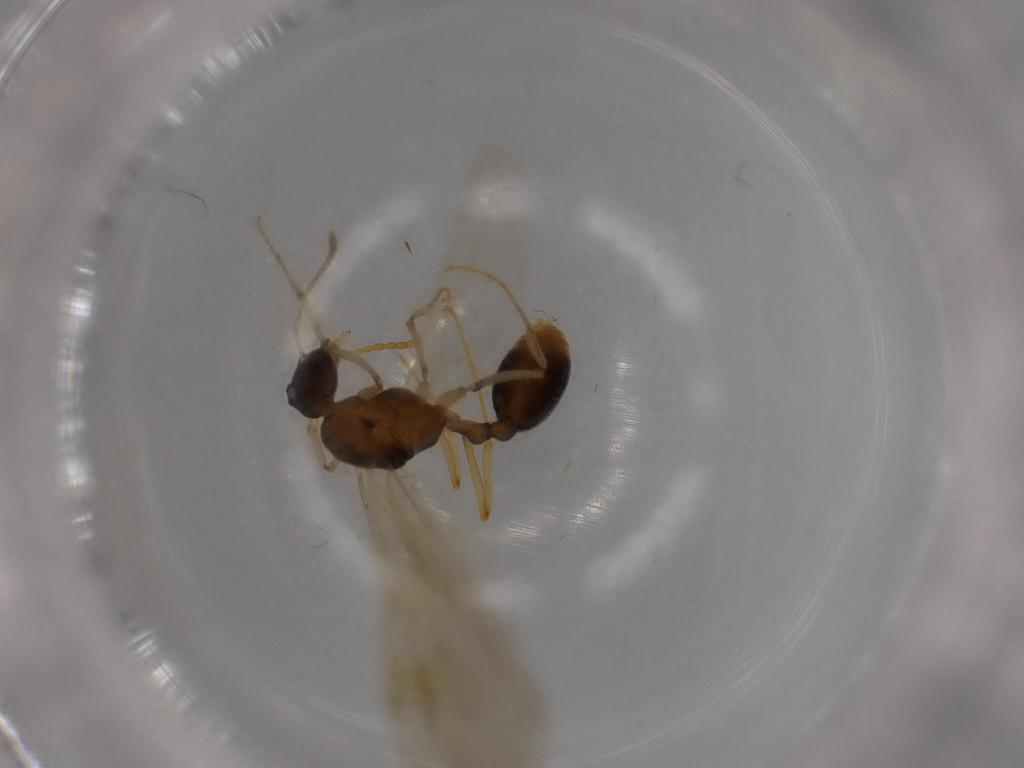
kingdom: Animalia
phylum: Arthropoda
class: Insecta
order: Hymenoptera
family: Formicidae
